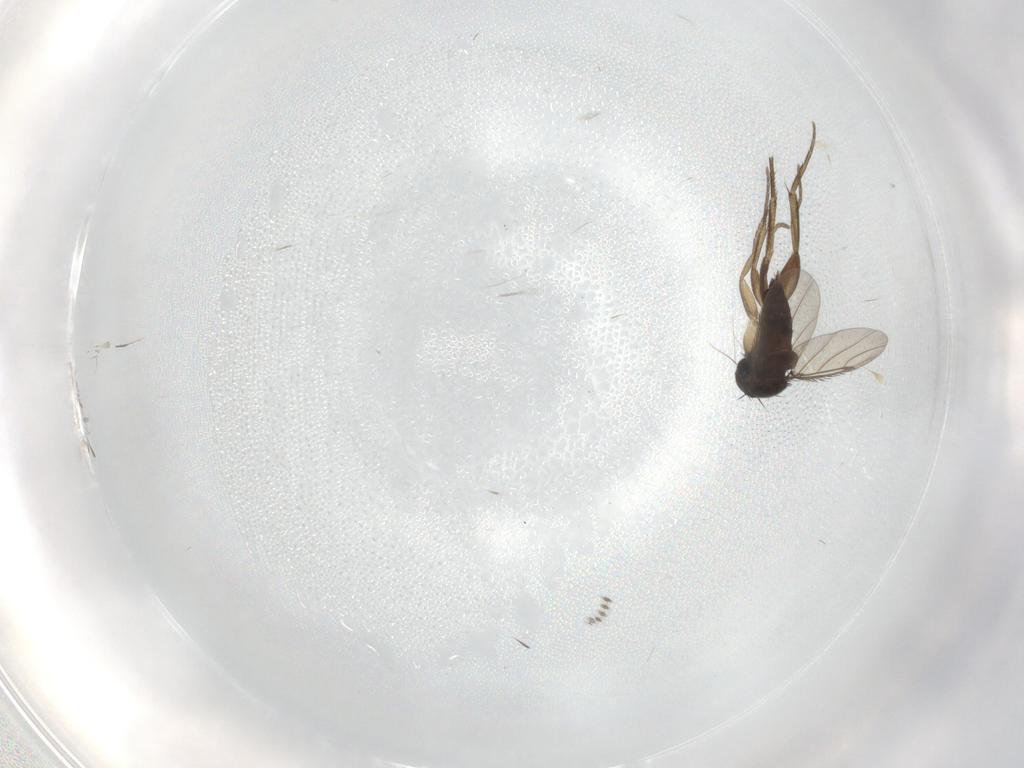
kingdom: Animalia
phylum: Arthropoda
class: Insecta
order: Diptera
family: Phoridae
